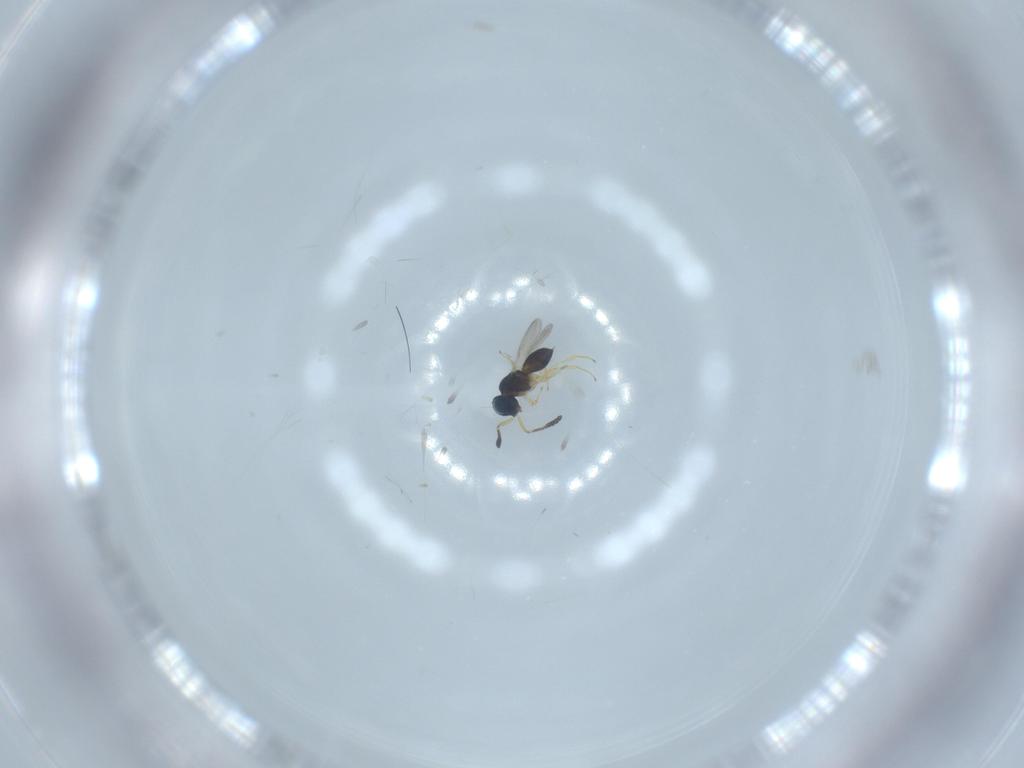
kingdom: Animalia
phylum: Arthropoda
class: Insecta
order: Hymenoptera
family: Scelionidae
